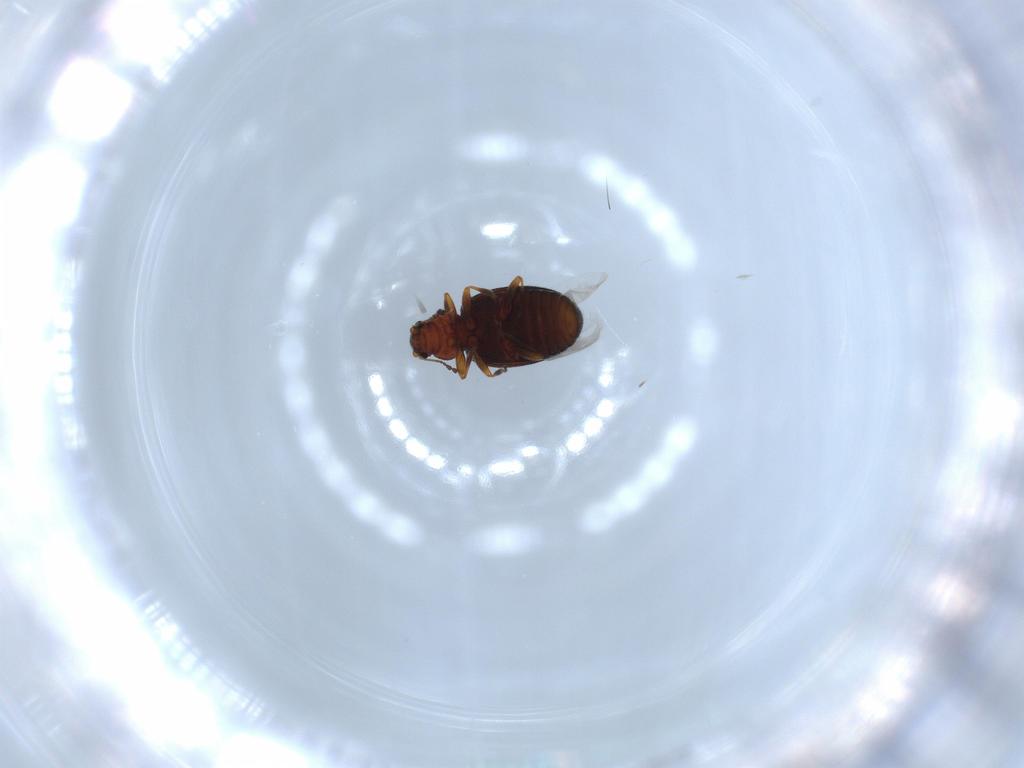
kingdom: Animalia
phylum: Arthropoda
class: Insecta
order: Coleoptera
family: Latridiidae
